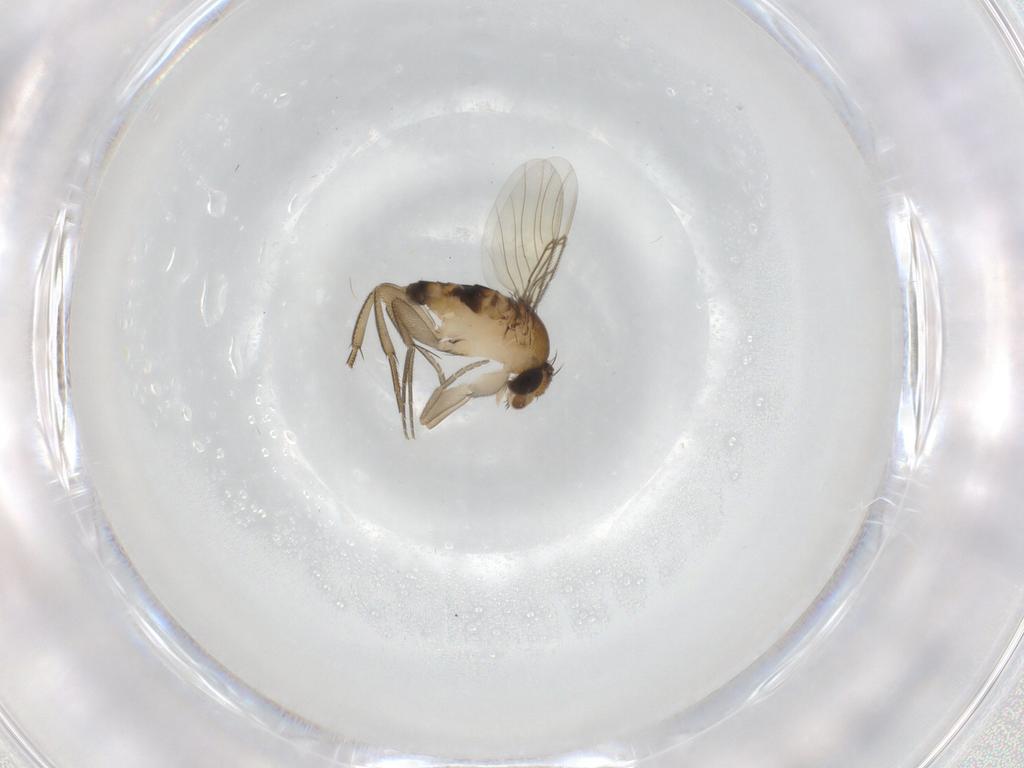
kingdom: Animalia
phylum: Arthropoda
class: Insecta
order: Diptera
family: Phoridae
